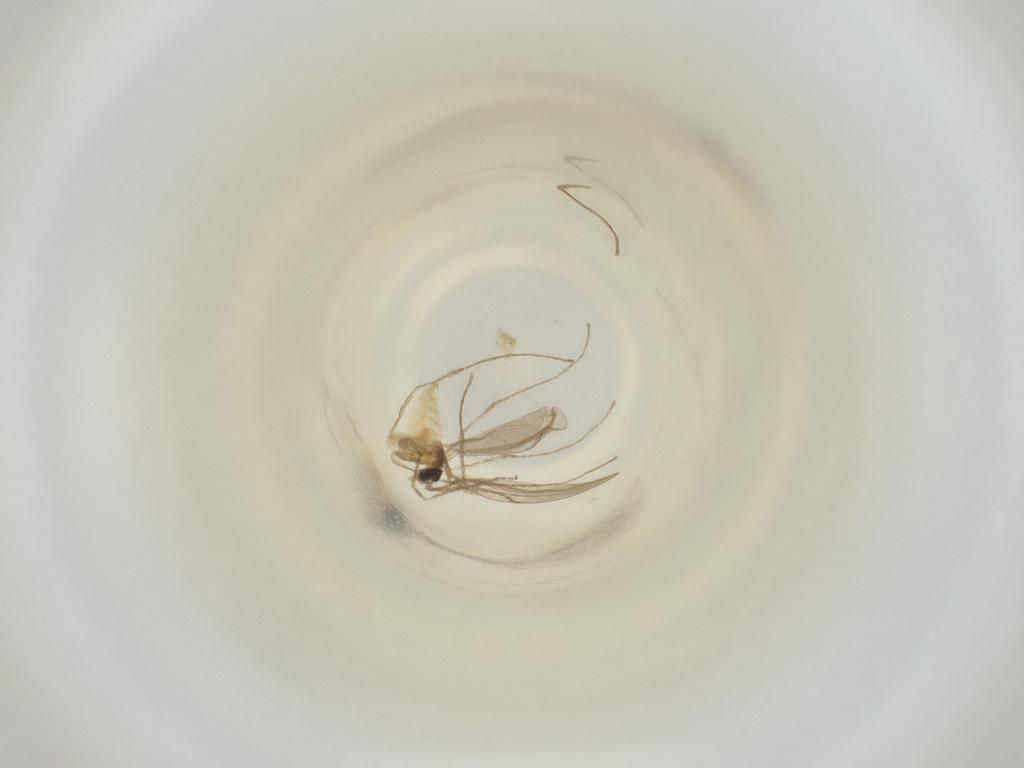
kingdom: Animalia
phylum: Arthropoda
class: Insecta
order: Diptera
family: Cecidomyiidae
